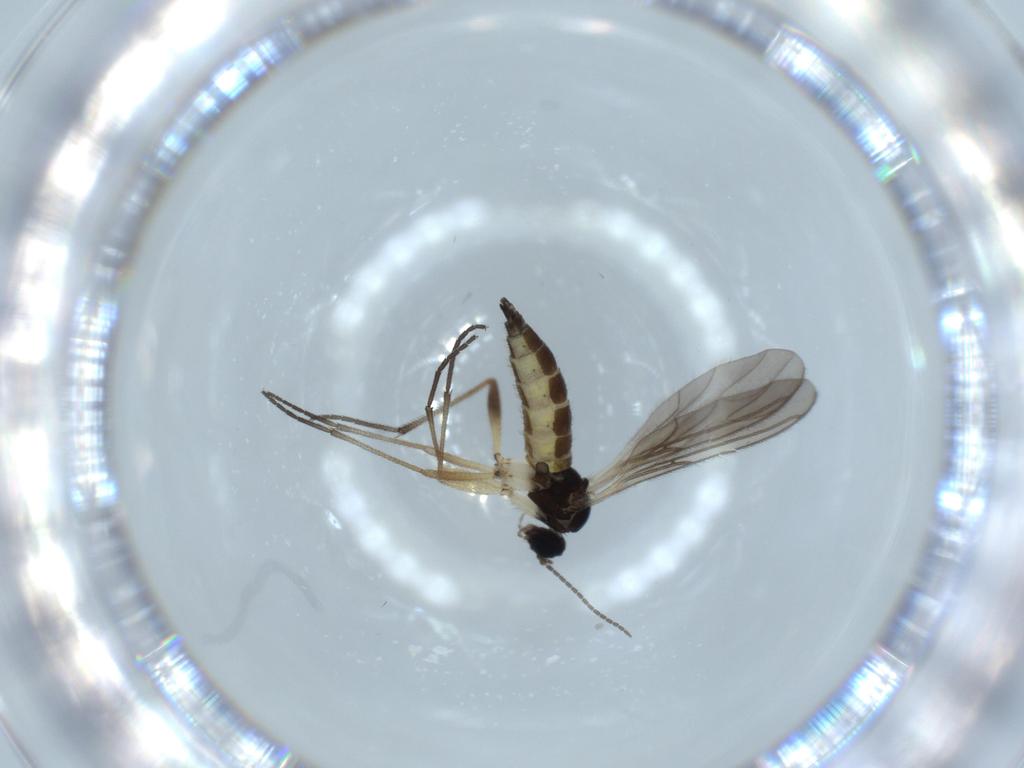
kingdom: Animalia
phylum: Arthropoda
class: Insecta
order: Diptera
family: Sciaridae
